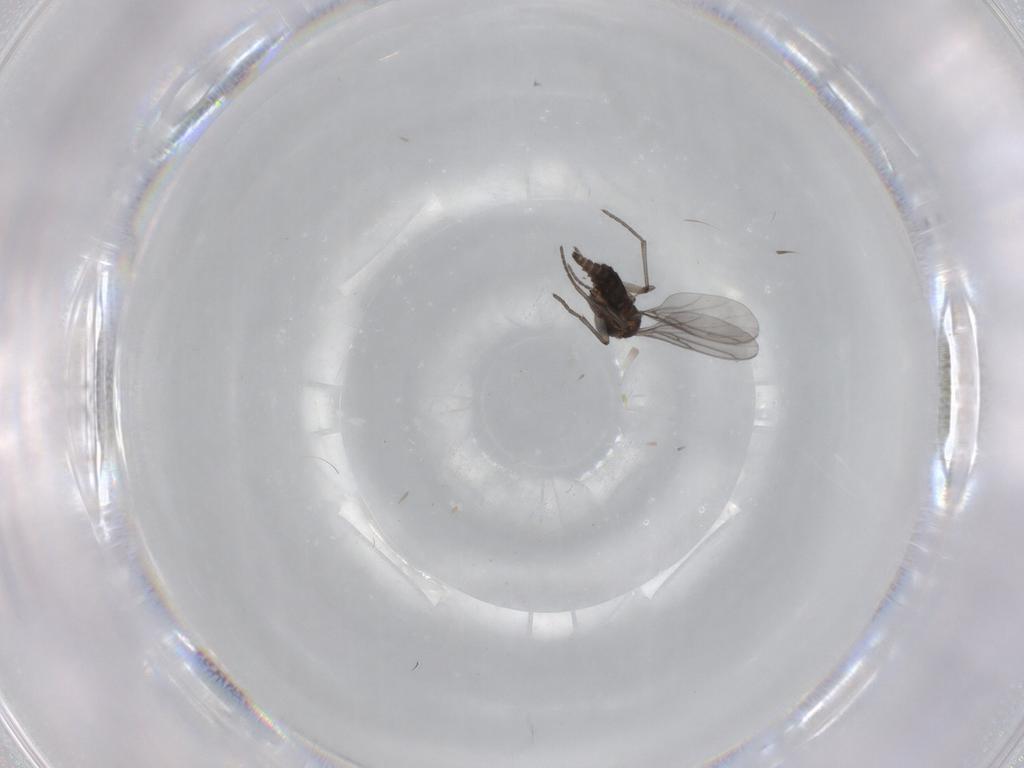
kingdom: Animalia
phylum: Arthropoda
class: Insecta
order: Diptera
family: Sciaridae
